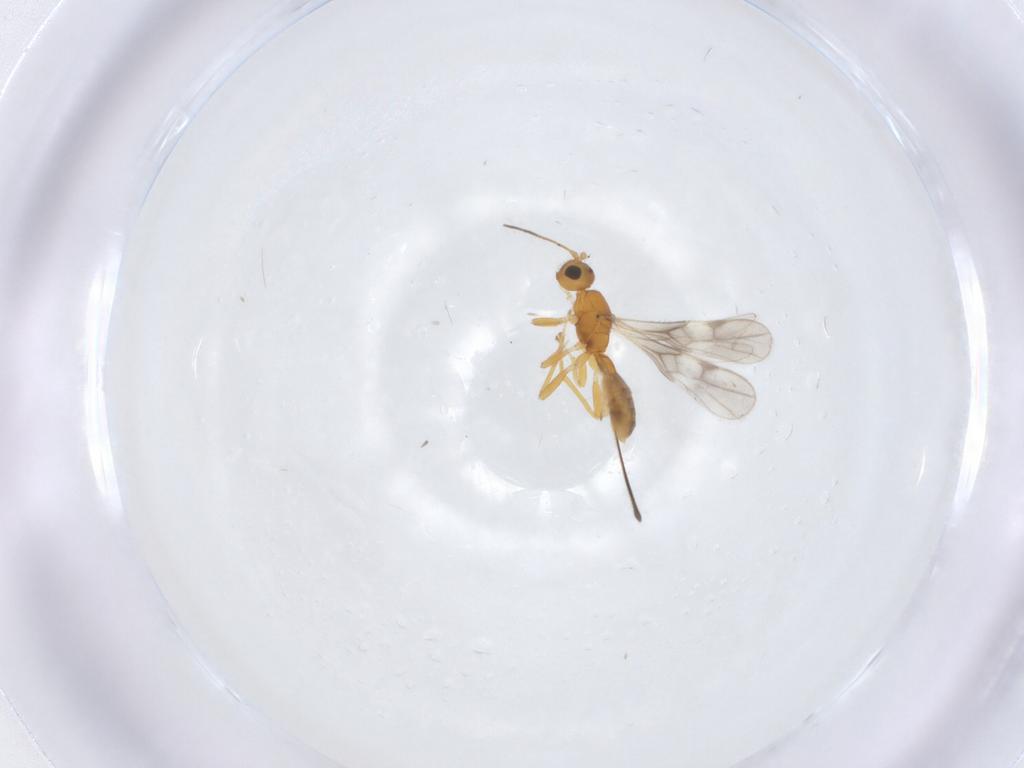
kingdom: Animalia
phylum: Arthropoda
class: Insecta
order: Hymenoptera
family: Braconidae
